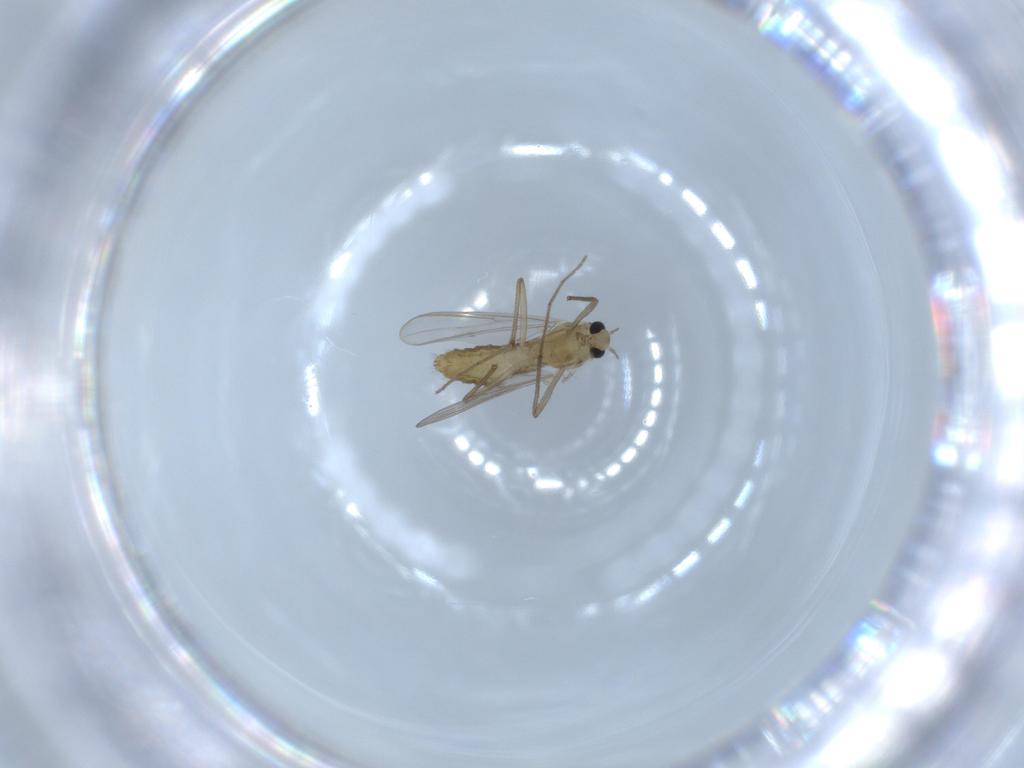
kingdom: Animalia
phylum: Arthropoda
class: Insecta
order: Diptera
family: Chironomidae
